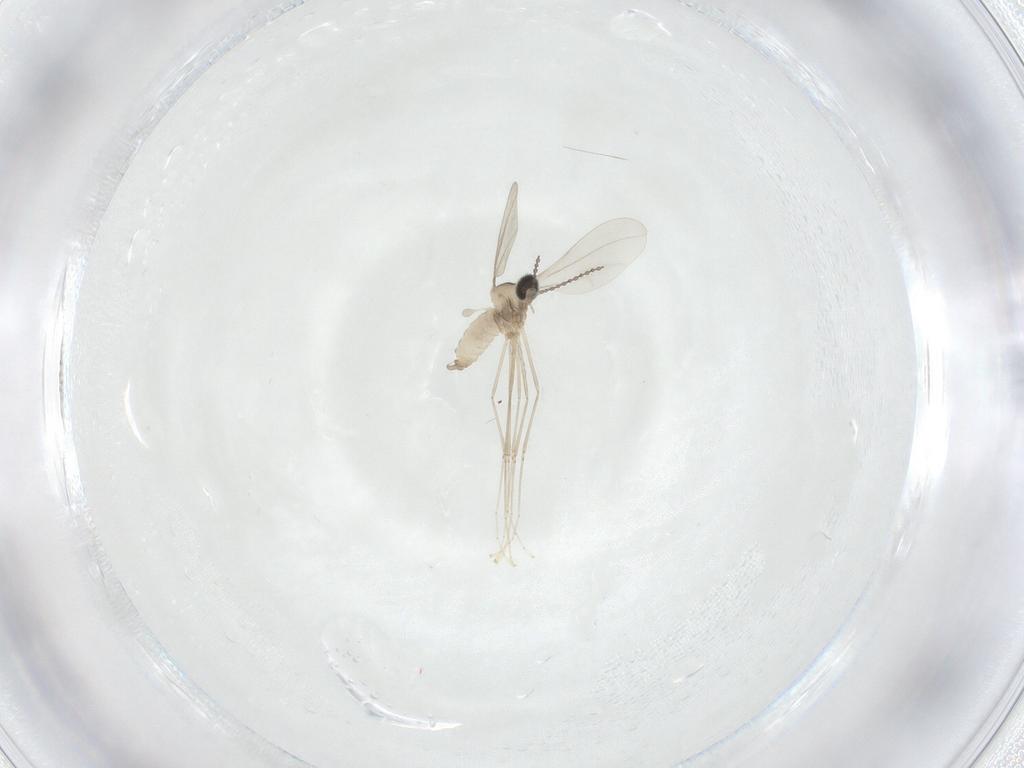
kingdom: Animalia
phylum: Arthropoda
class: Insecta
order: Diptera
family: Cecidomyiidae
